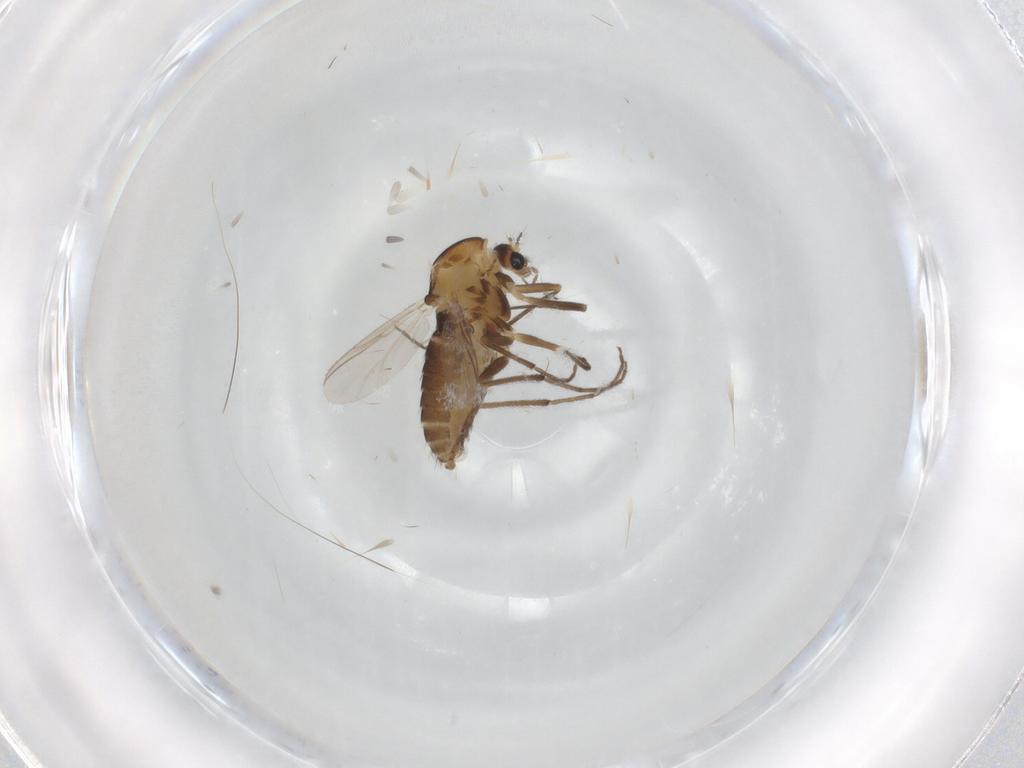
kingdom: Animalia
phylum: Arthropoda
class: Insecta
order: Diptera
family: Chironomidae
